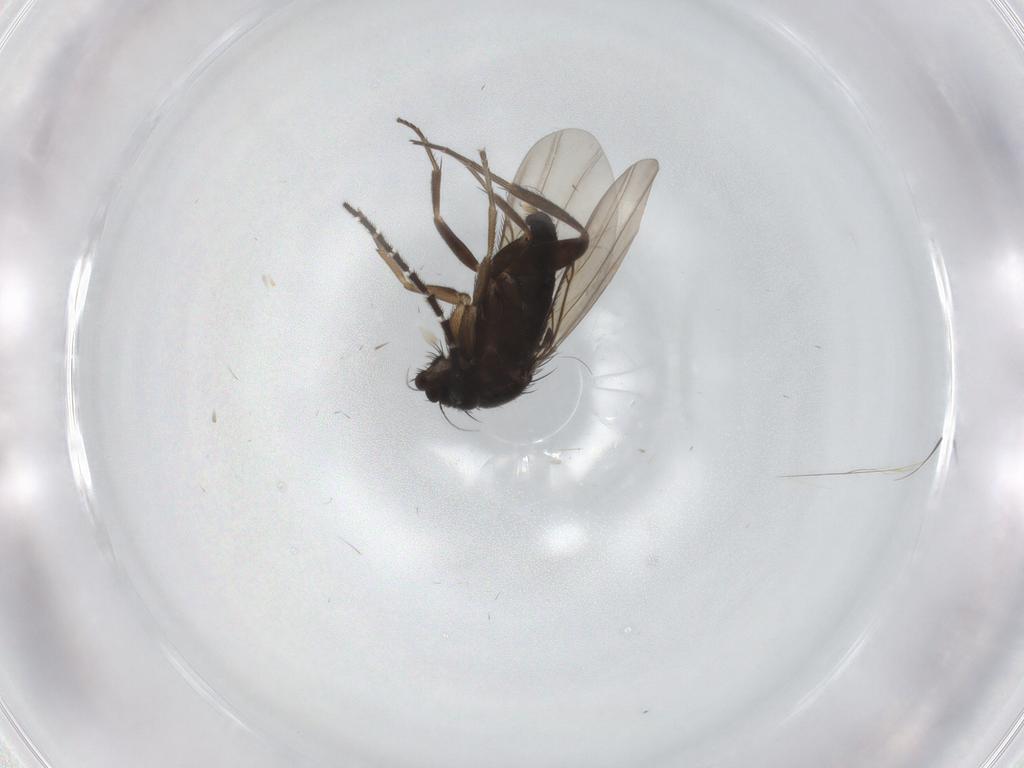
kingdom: Animalia
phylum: Arthropoda
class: Insecta
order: Diptera
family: Phoridae
